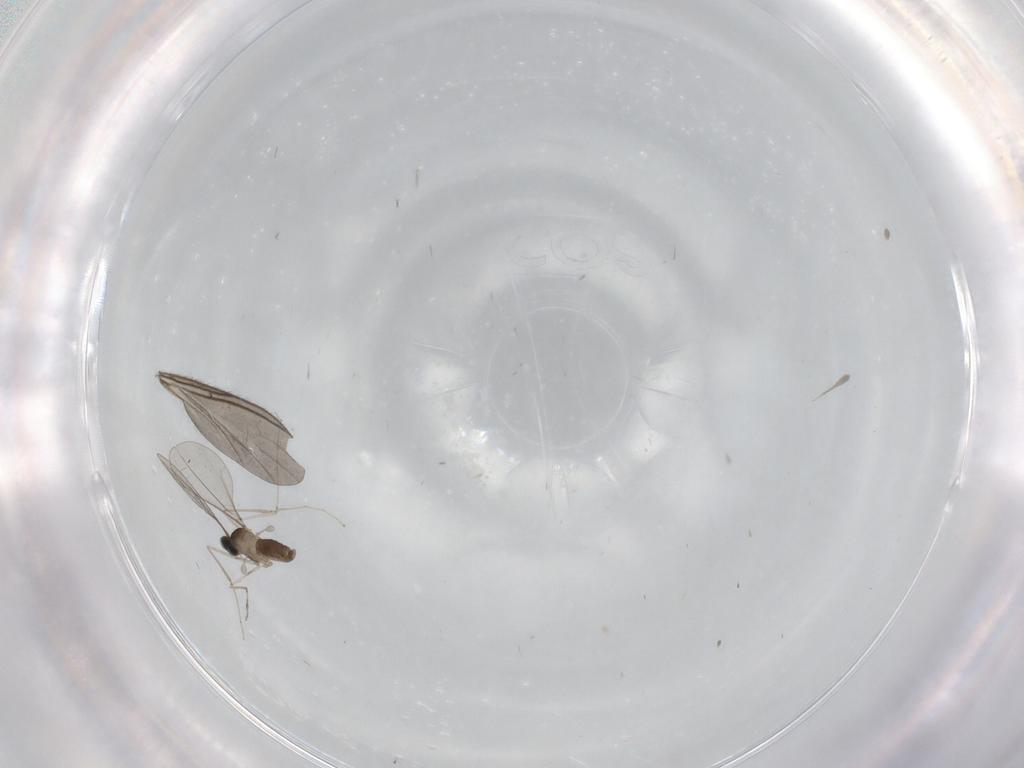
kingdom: Animalia
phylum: Arthropoda
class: Insecta
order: Diptera
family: Cecidomyiidae
